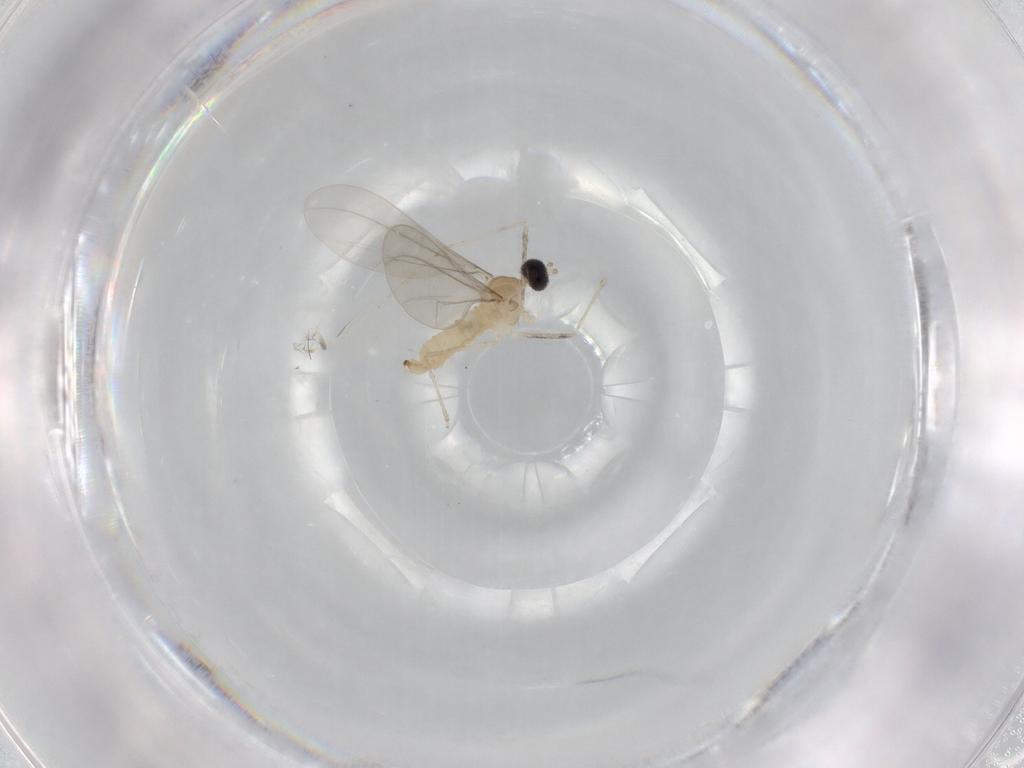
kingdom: Animalia
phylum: Arthropoda
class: Insecta
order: Diptera
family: Cecidomyiidae
